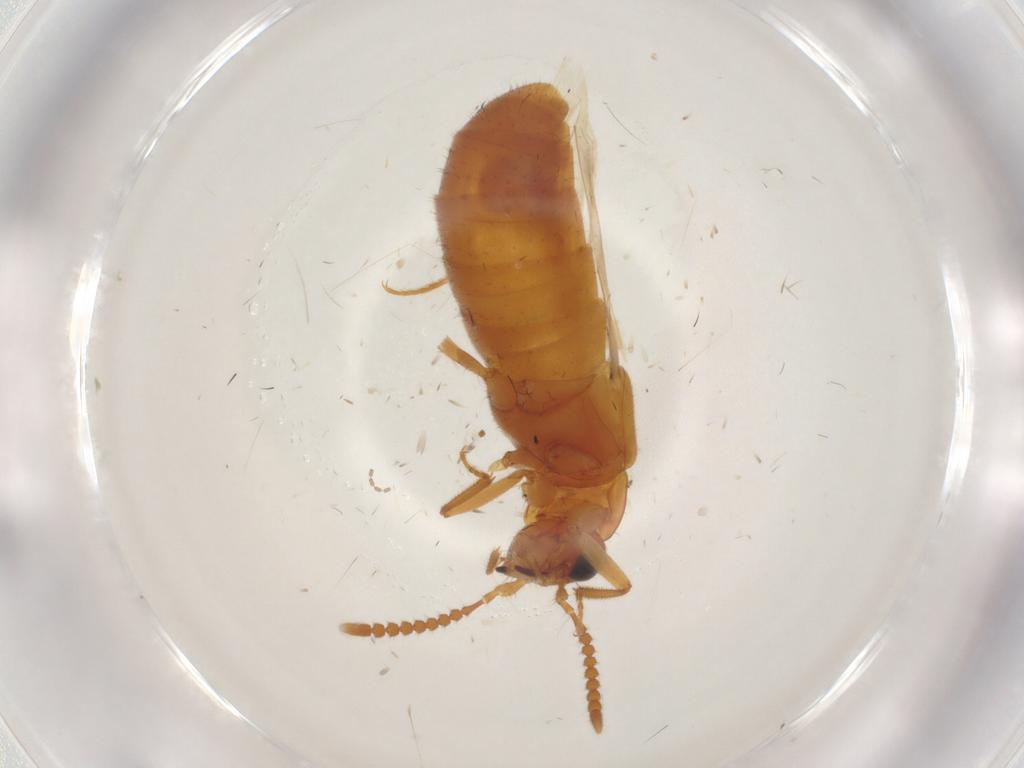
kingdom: Animalia
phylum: Arthropoda
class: Insecta
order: Coleoptera
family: Staphylinidae
